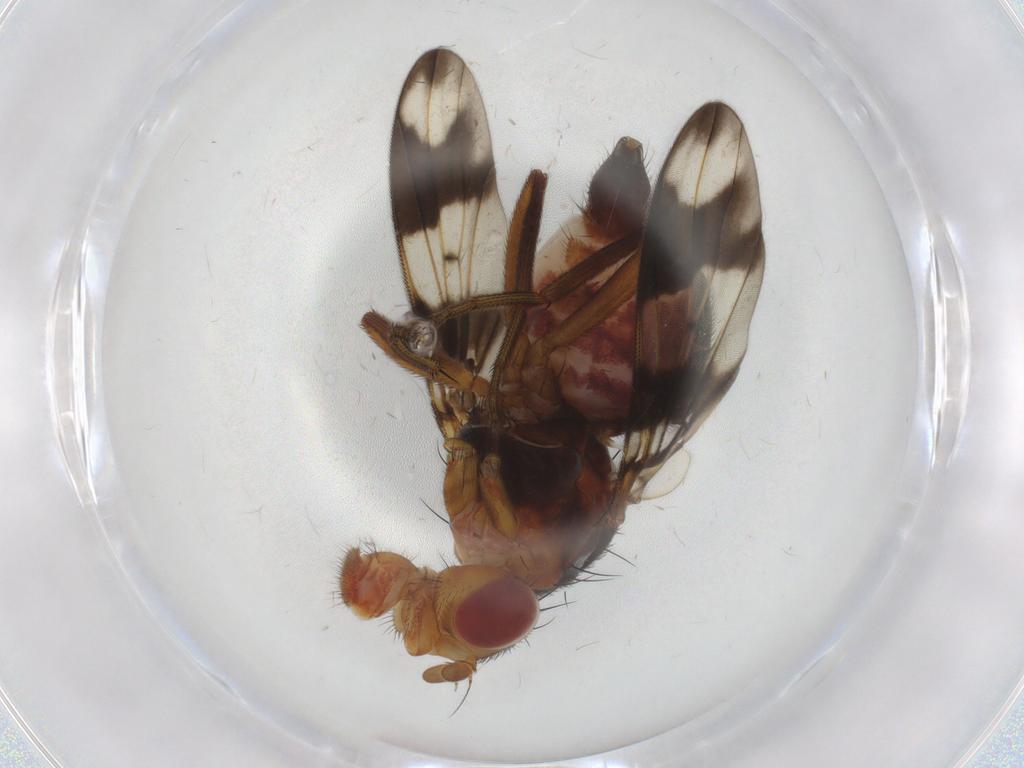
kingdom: Animalia
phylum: Arthropoda
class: Insecta
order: Diptera
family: Richardiidae
